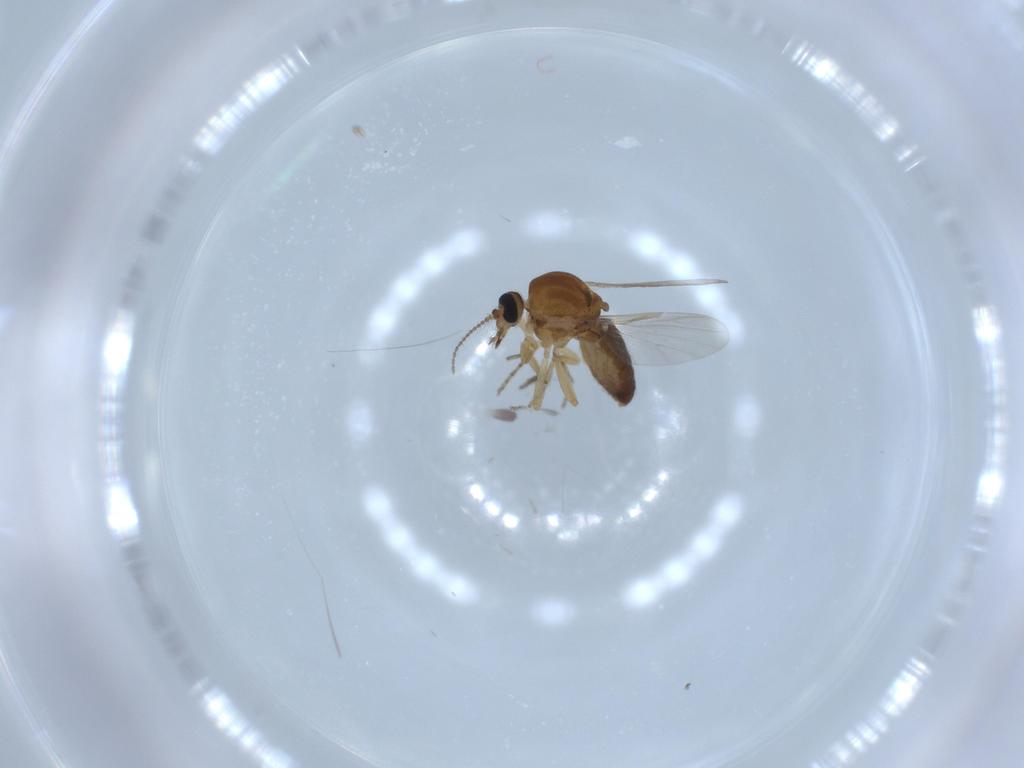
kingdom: Animalia
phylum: Arthropoda
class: Insecta
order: Diptera
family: Ceratopogonidae
